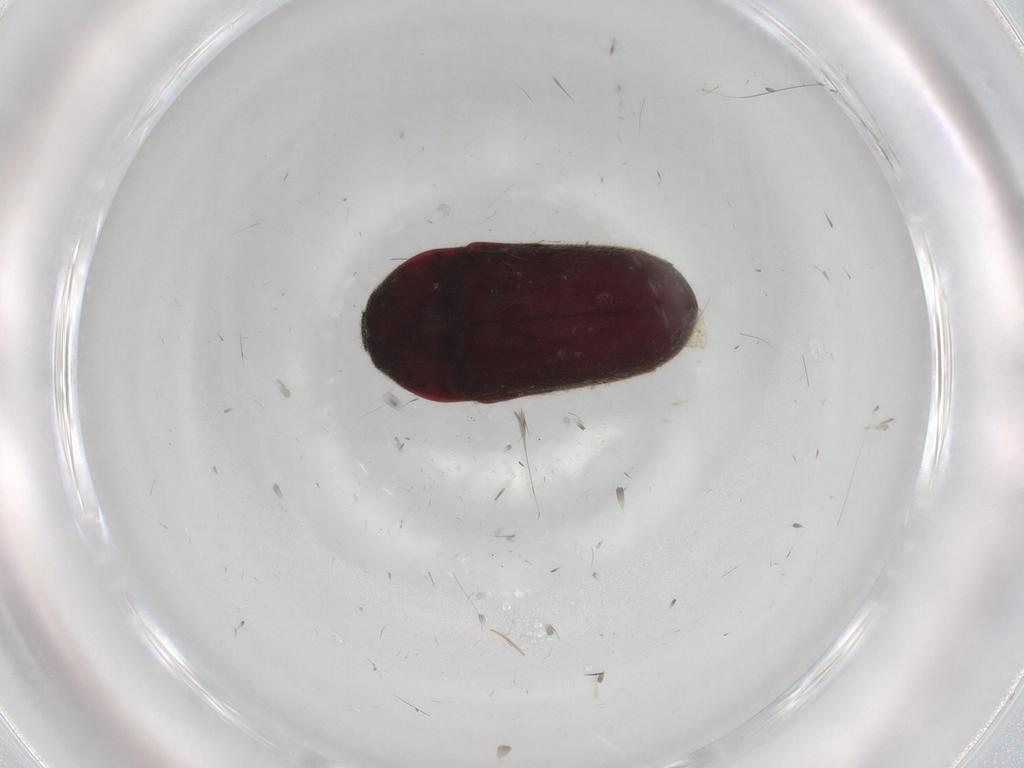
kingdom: Animalia
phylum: Arthropoda
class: Insecta
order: Coleoptera
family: Throscidae
